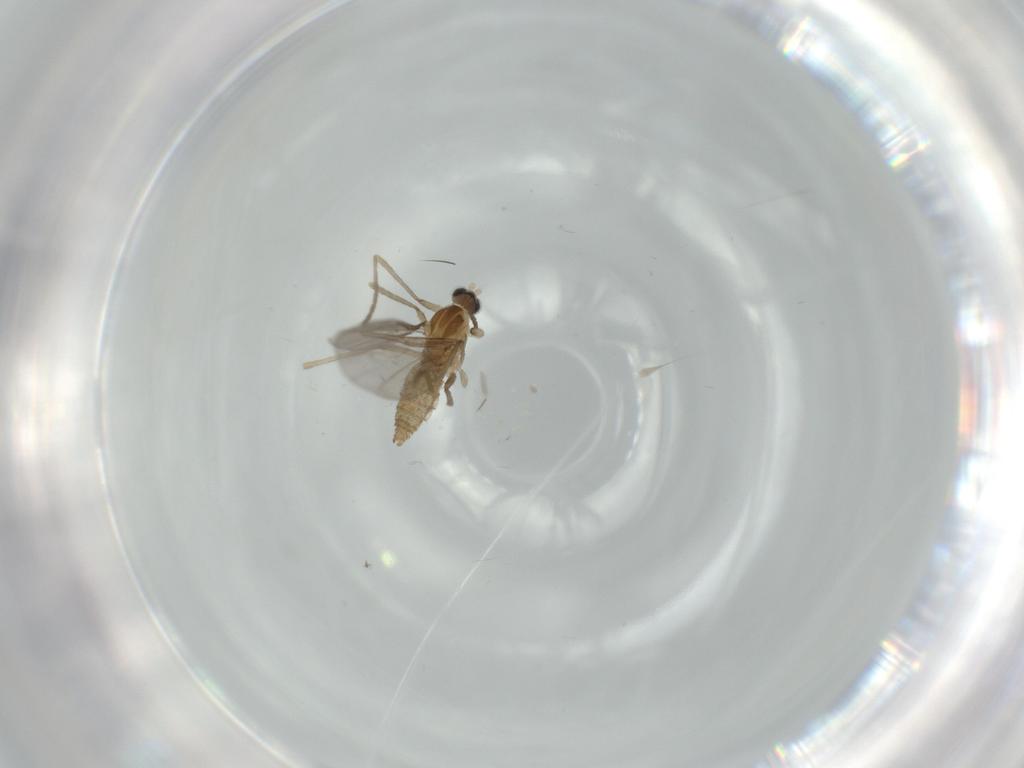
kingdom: Animalia
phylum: Arthropoda
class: Insecta
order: Diptera
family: Cecidomyiidae
